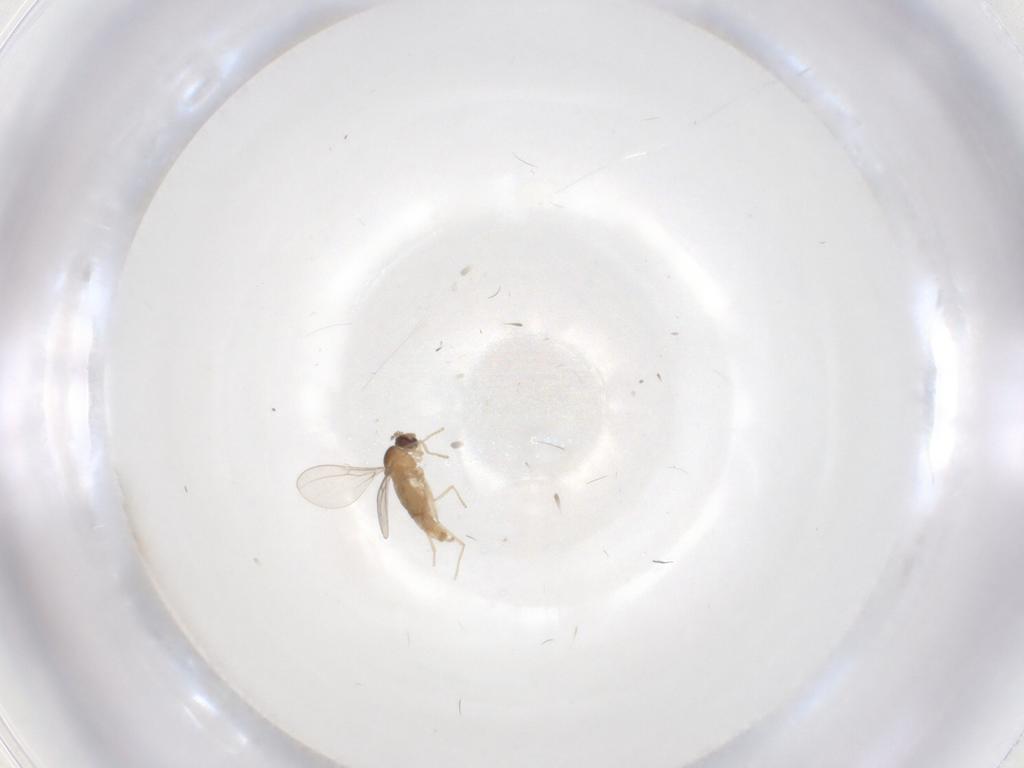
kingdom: Animalia
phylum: Arthropoda
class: Insecta
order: Diptera
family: Cecidomyiidae
